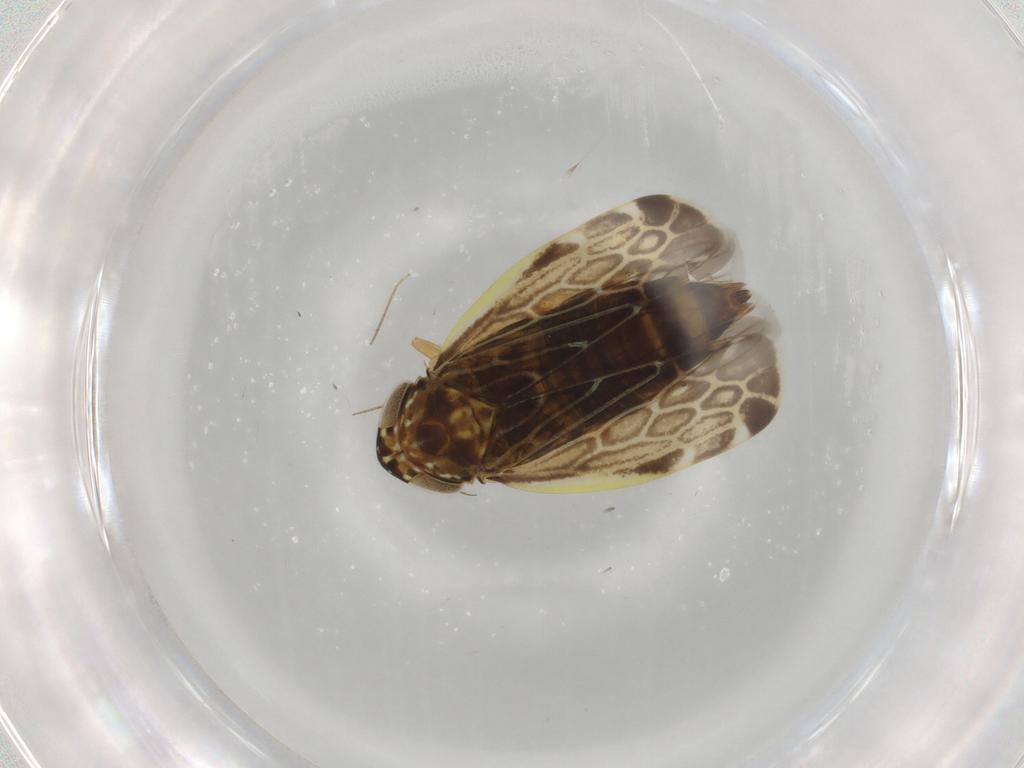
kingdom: Animalia
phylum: Arthropoda
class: Insecta
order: Hemiptera
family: Cicadellidae
